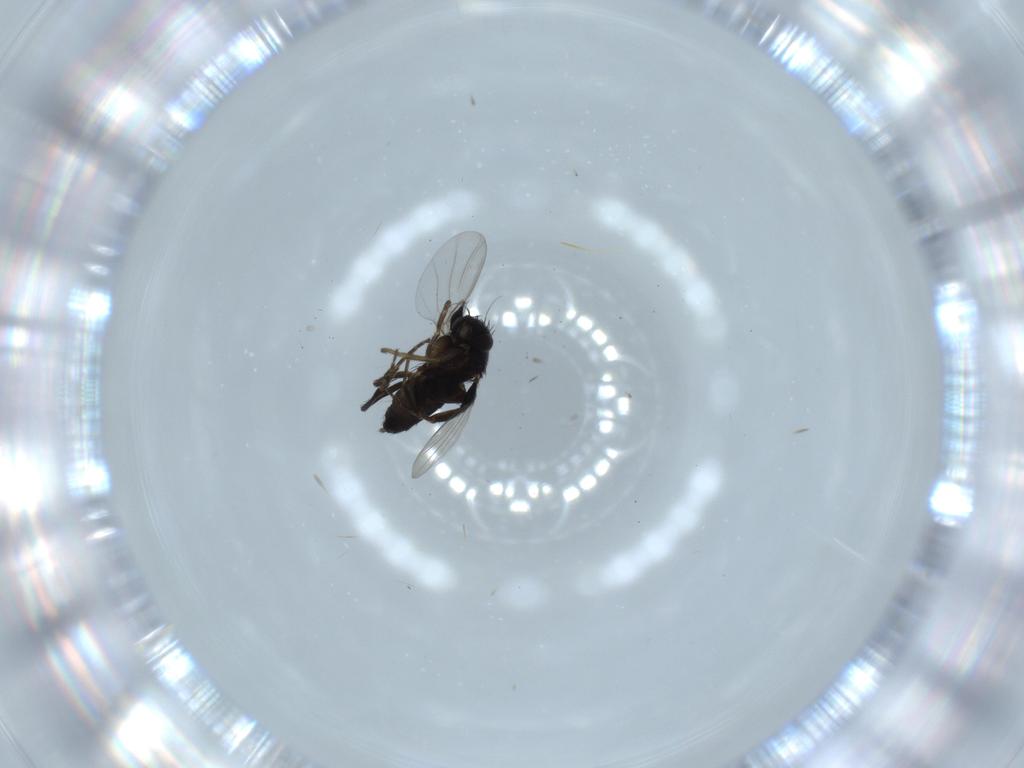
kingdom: Animalia
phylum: Arthropoda
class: Insecta
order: Diptera
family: Phoridae
